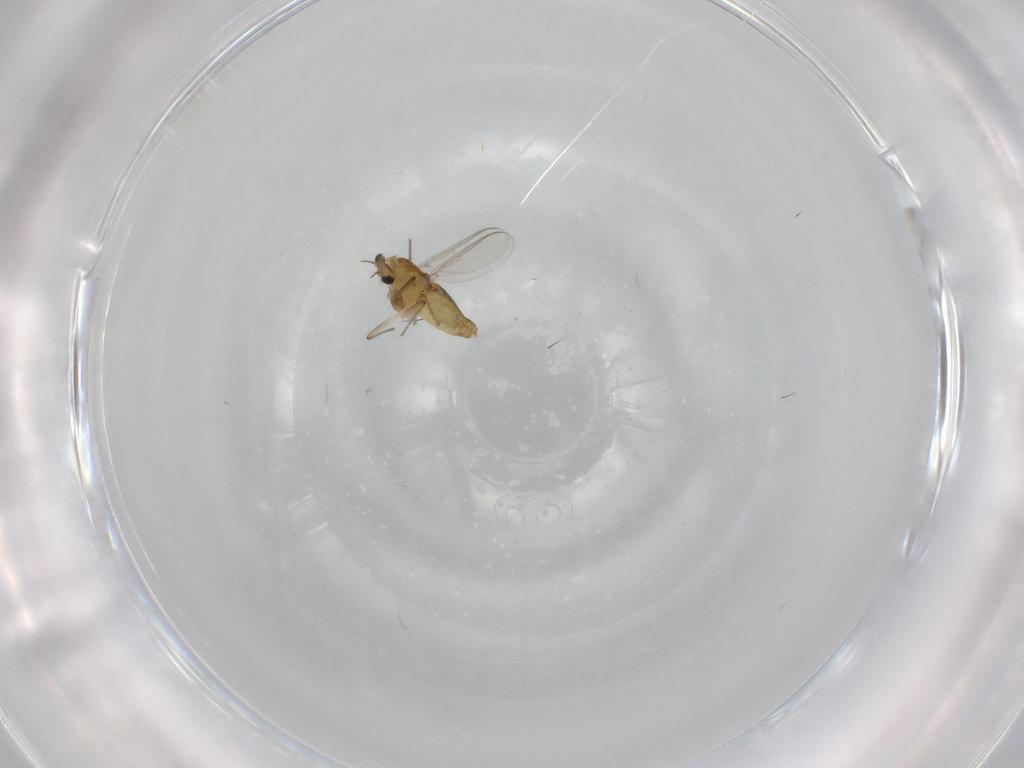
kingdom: Animalia
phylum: Arthropoda
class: Insecta
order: Diptera
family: Chironomidae
